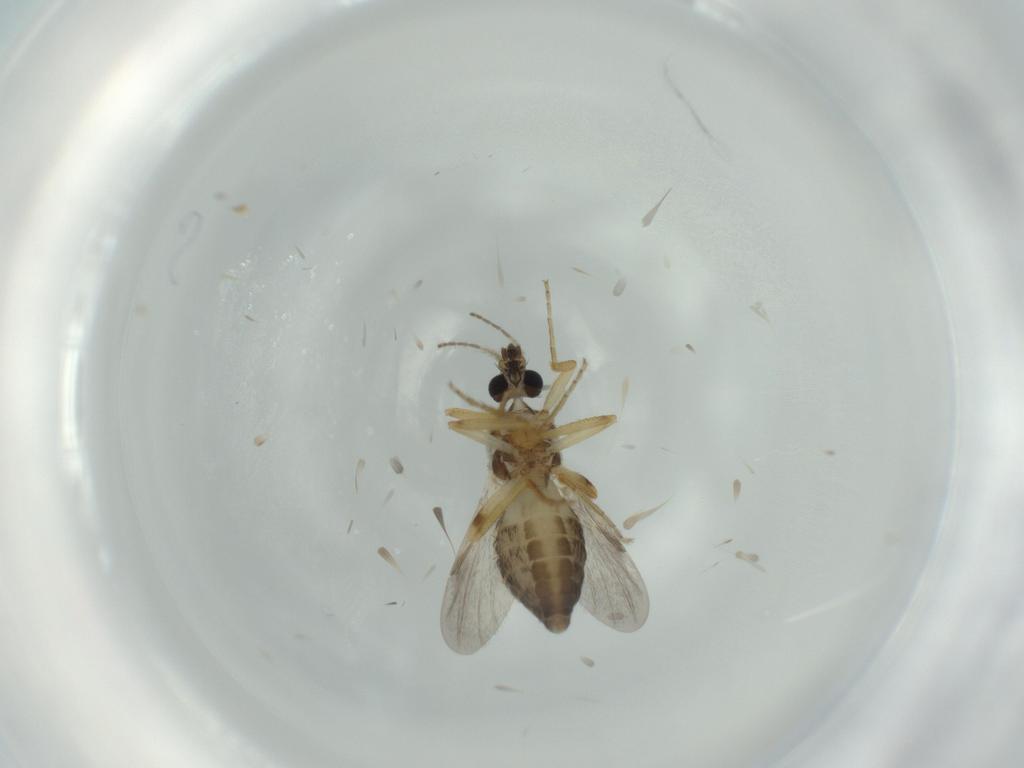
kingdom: Animalia
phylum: Arthropoda
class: Insecta
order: Diptera
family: Ceratopogonidae
